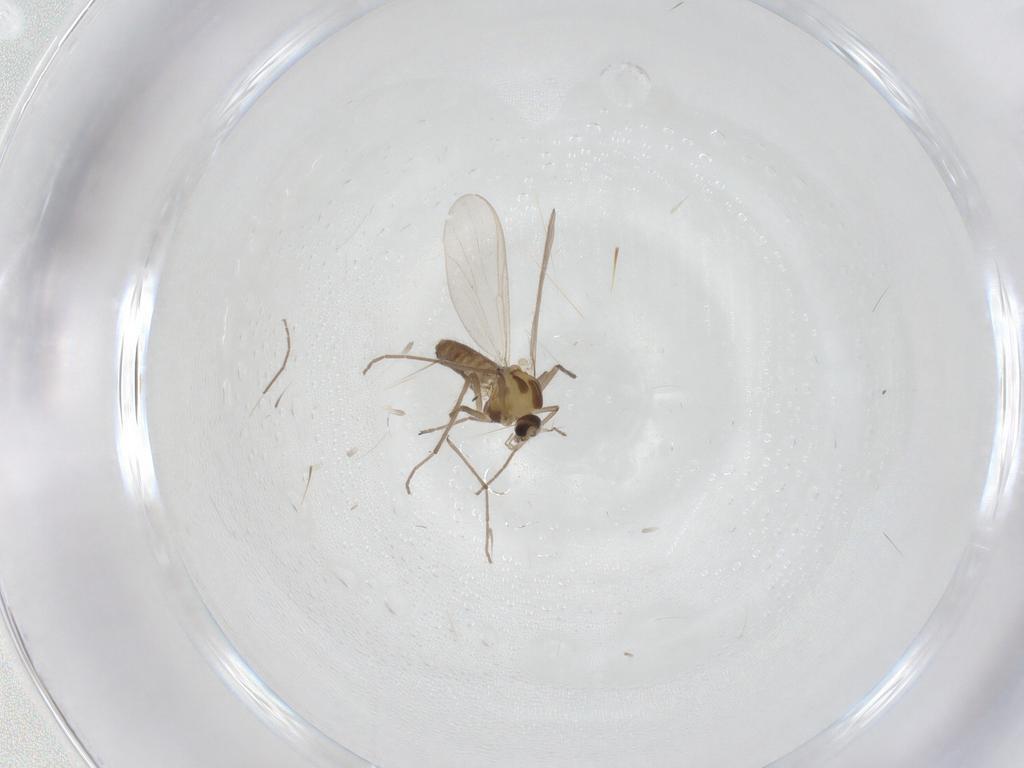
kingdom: Animalia
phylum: Arthropoda
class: Insecta
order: Diptera
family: Chironomidae
